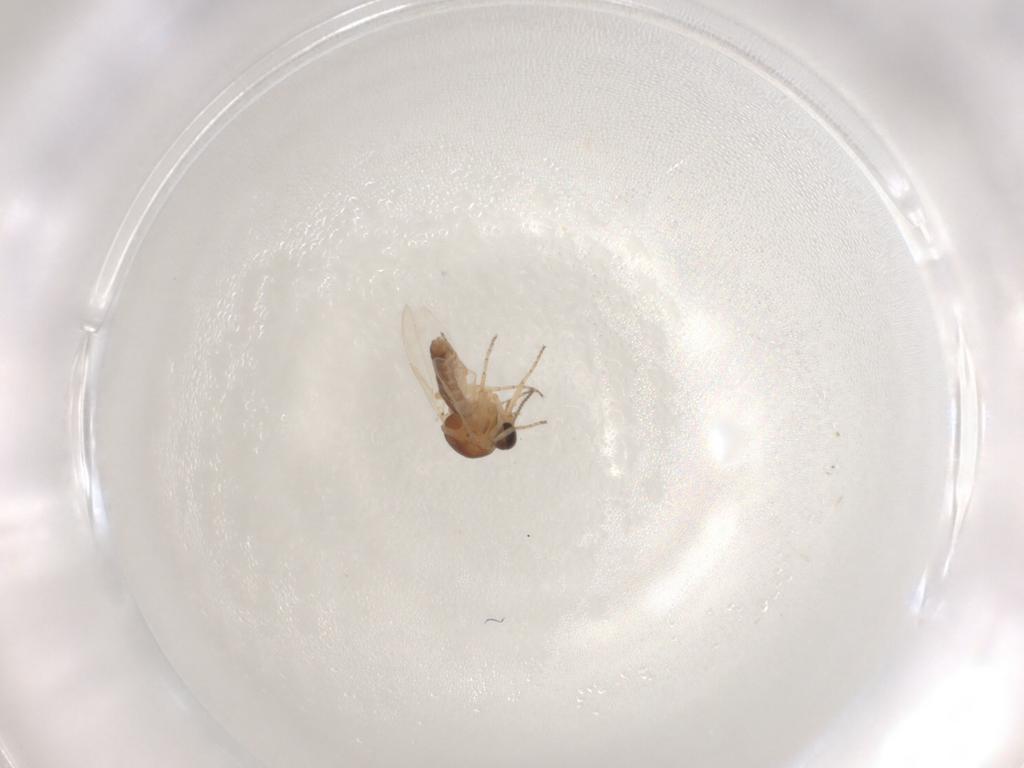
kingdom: Animalia
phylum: Arthropoda
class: Insecta
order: Diptera
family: Ceratopogonidae
